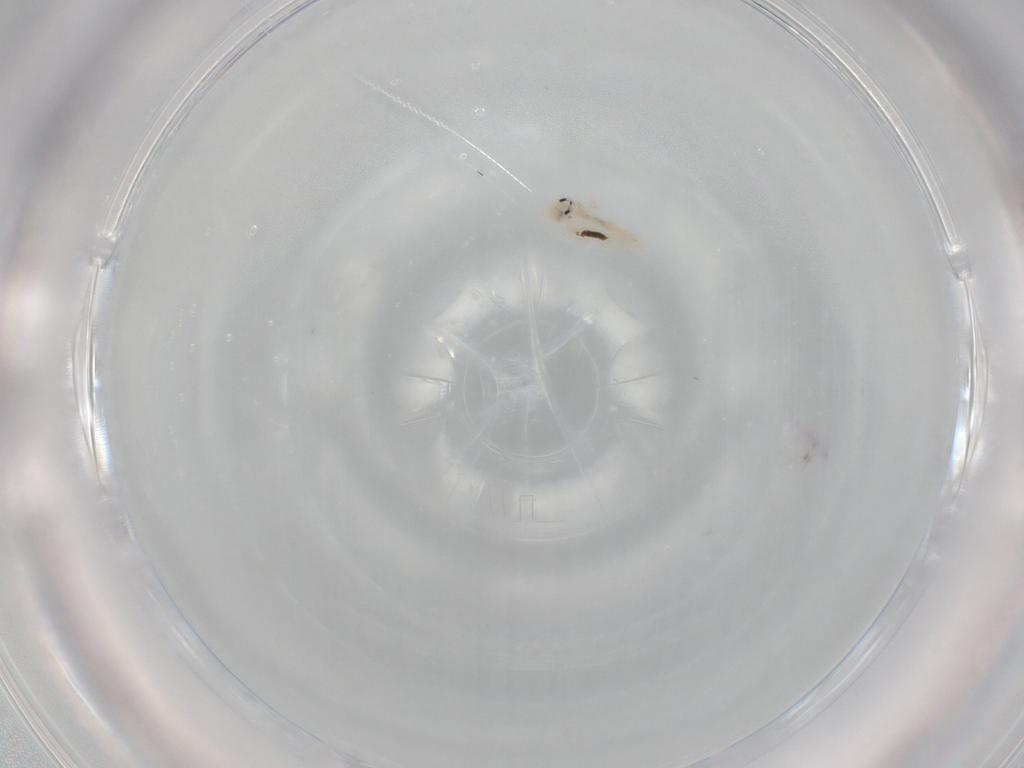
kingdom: Animalia
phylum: Arthropoda
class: Collembola
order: Entomobryomorpha
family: Entomobryidae
